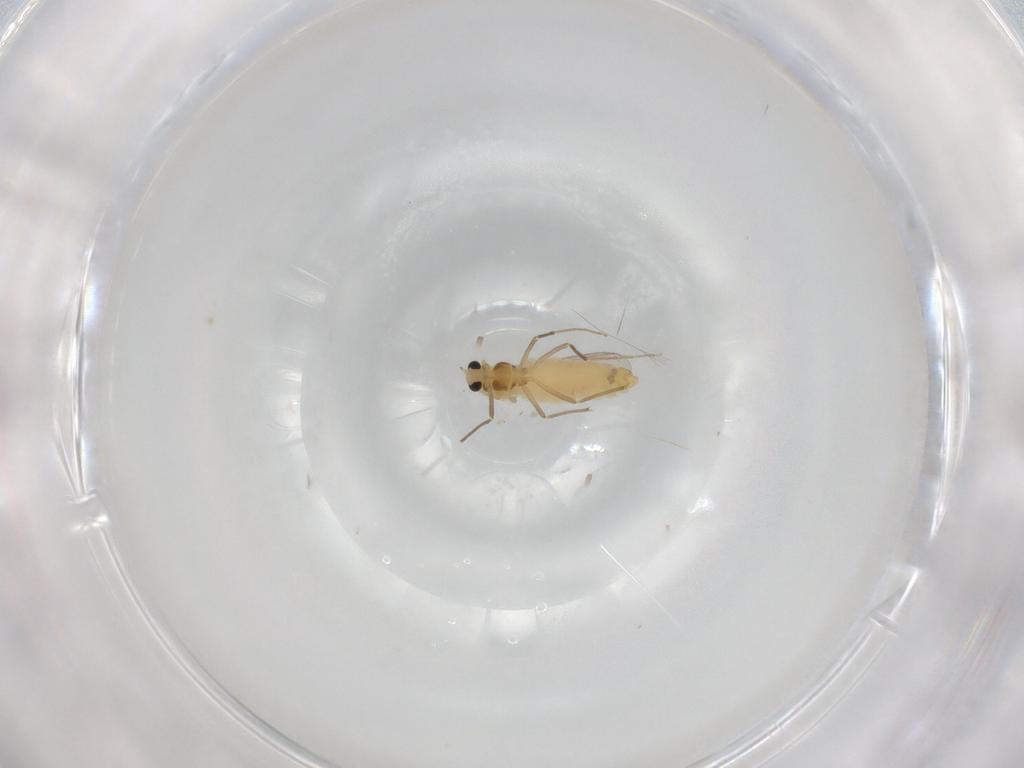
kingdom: Animalia
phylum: Arthropoda
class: Insecta
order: Diptera
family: Chironomidae
